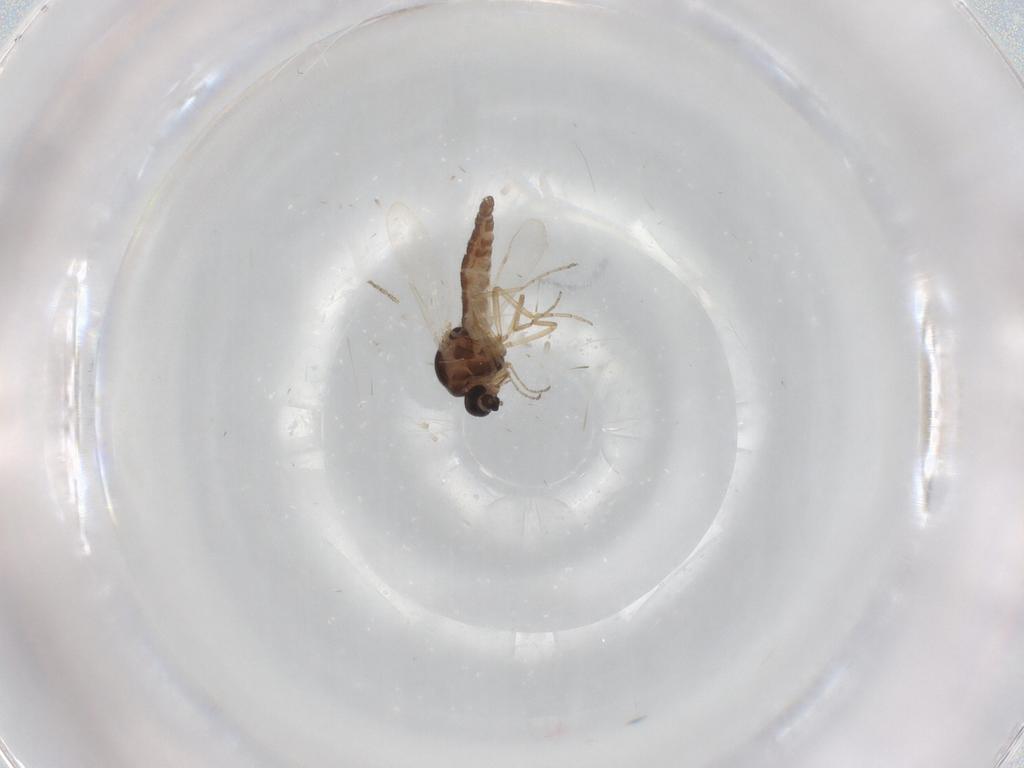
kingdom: Animalia
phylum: Arthropoda
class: Insecta
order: Diptera
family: Ceratopogonidae
